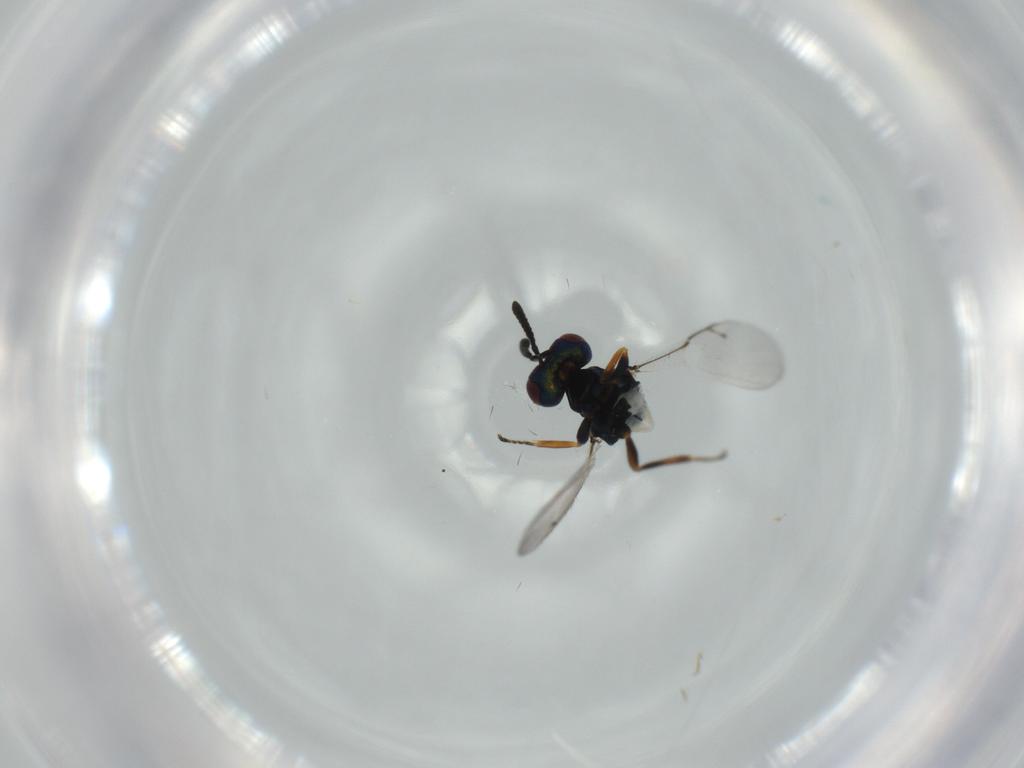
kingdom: Animalia
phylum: Arthropoda
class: Insecta
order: Hymenoptera
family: Pteromalidae
